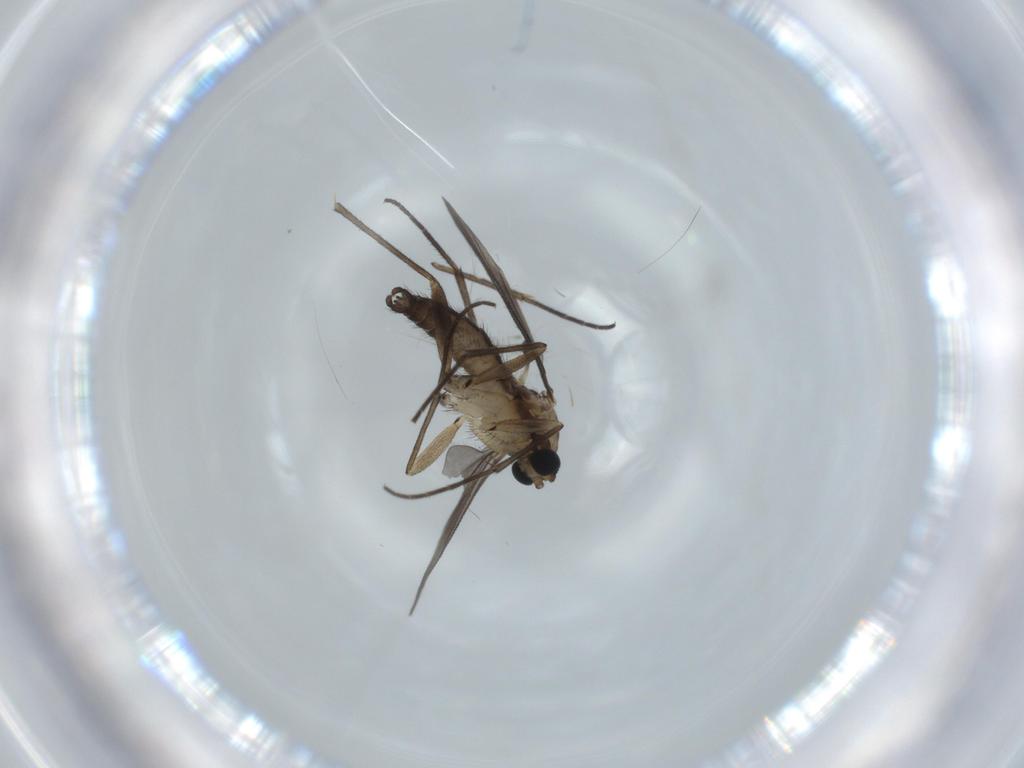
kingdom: Animalia
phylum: Arthropoda
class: Insecta
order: Diptera
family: Sciaridae
